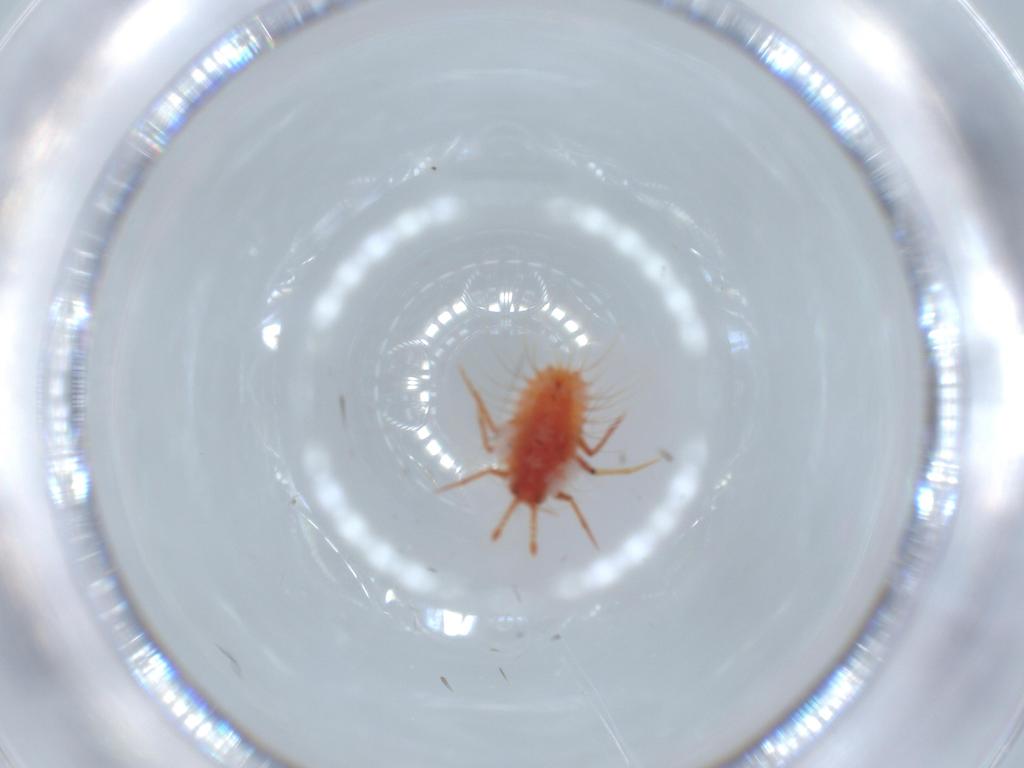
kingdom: Animalia
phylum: Arthropoda
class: Insecta
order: Hemiptera
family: Monophlebidae
